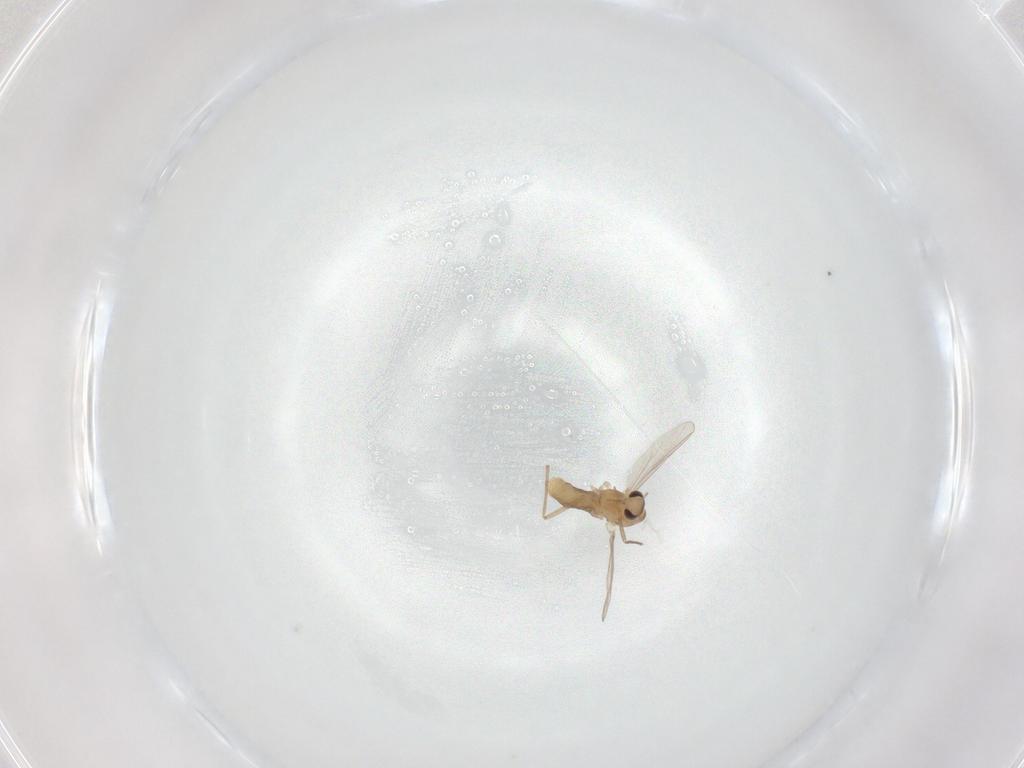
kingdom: Animalia
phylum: Arthropoda
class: Insecta
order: Diptera
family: Chironomidae
